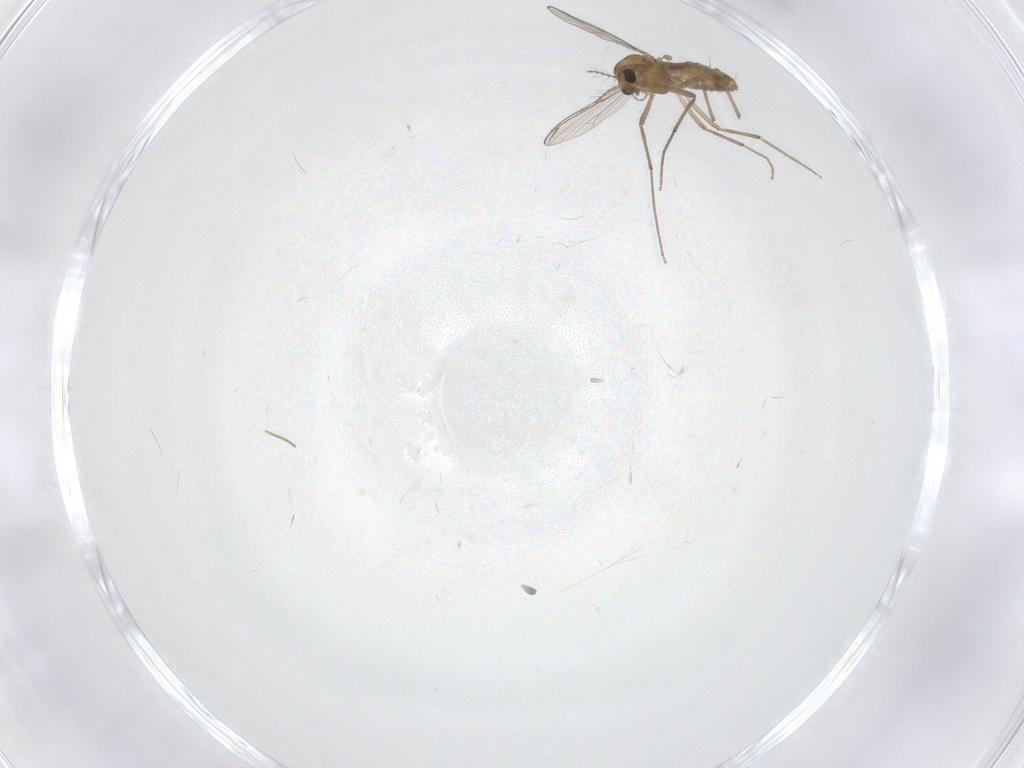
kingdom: Animalia
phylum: Arthropoda
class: Insecta
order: Diptera
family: Chironomidae
